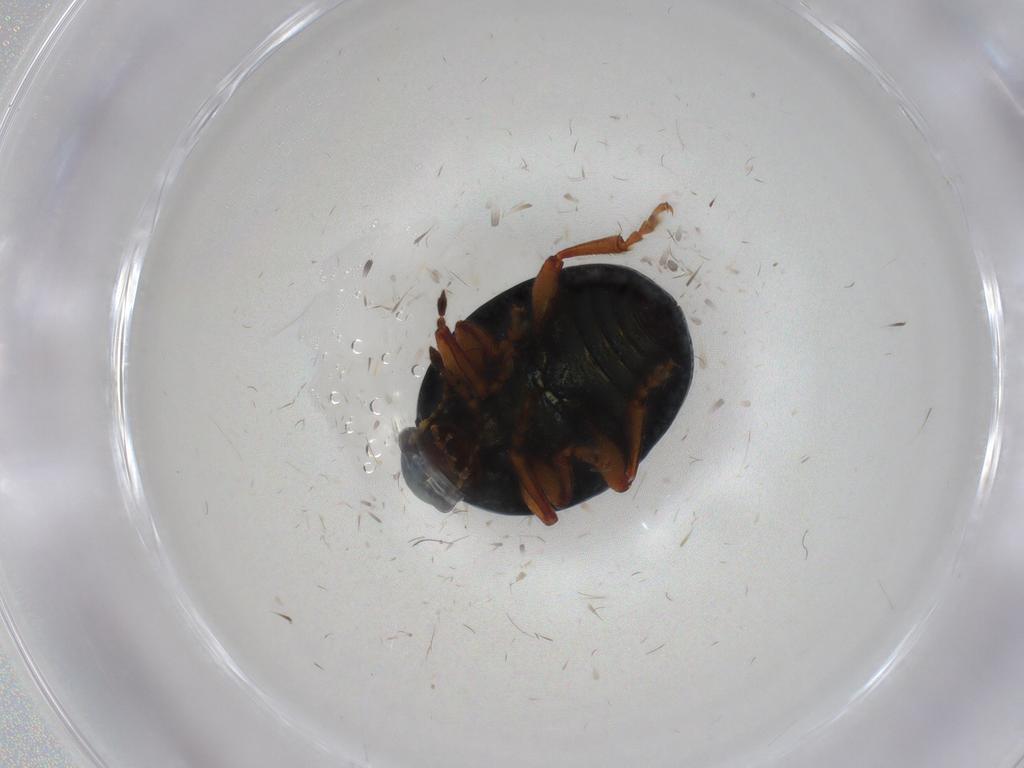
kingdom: Animalia
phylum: Arthropoda
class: Insecta
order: Coleoptera
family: Chrysomelidae
